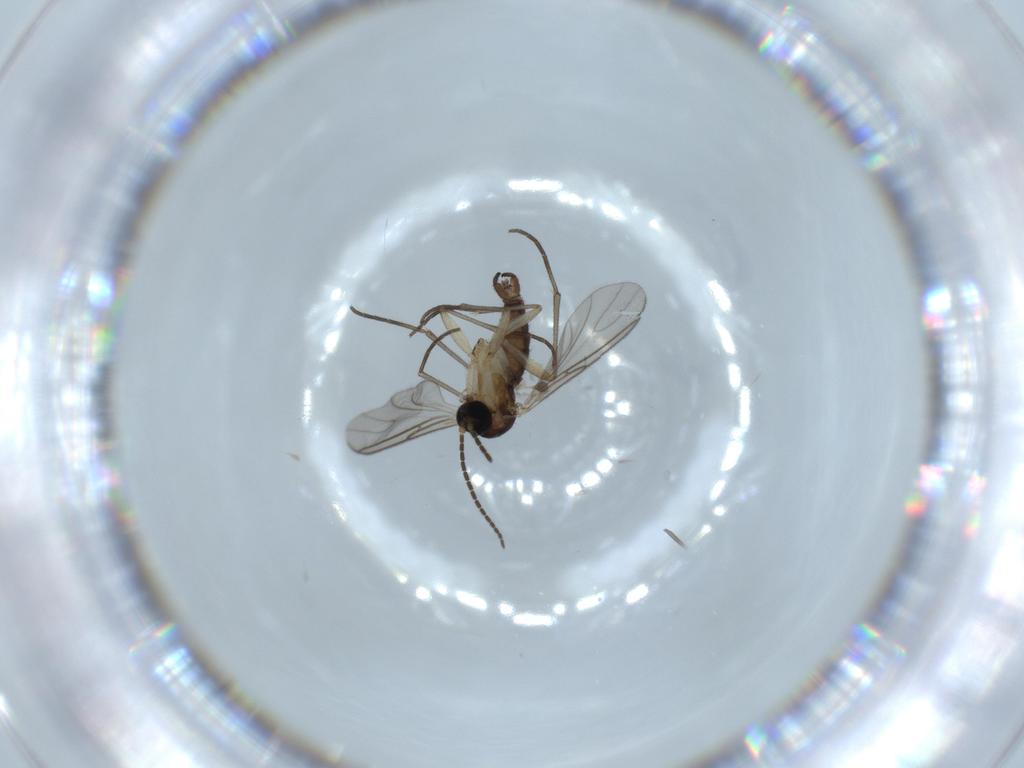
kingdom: Animalia
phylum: Arthropoda
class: Insecta
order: Diptera
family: Sciaridae
